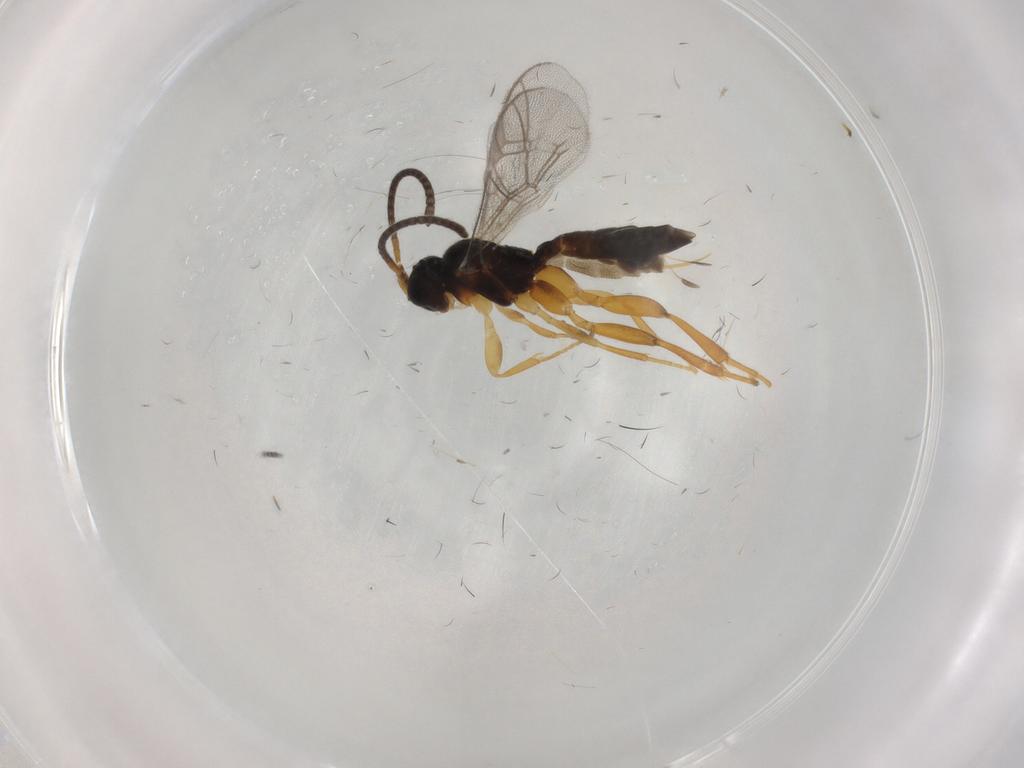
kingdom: Animalia
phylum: Arthropoda
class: Insecta
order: Hymenoptera
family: Ichneumonidae
